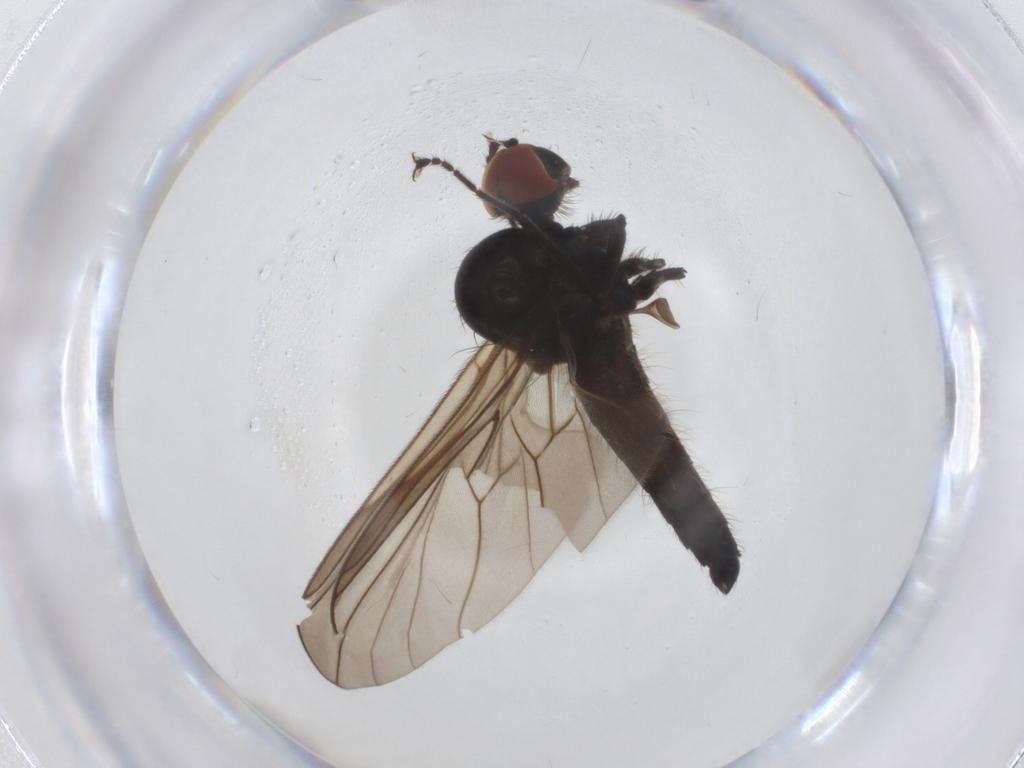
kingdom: Animalia
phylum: Arthropoda
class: Insecta
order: Diptera
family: Hybotidae
